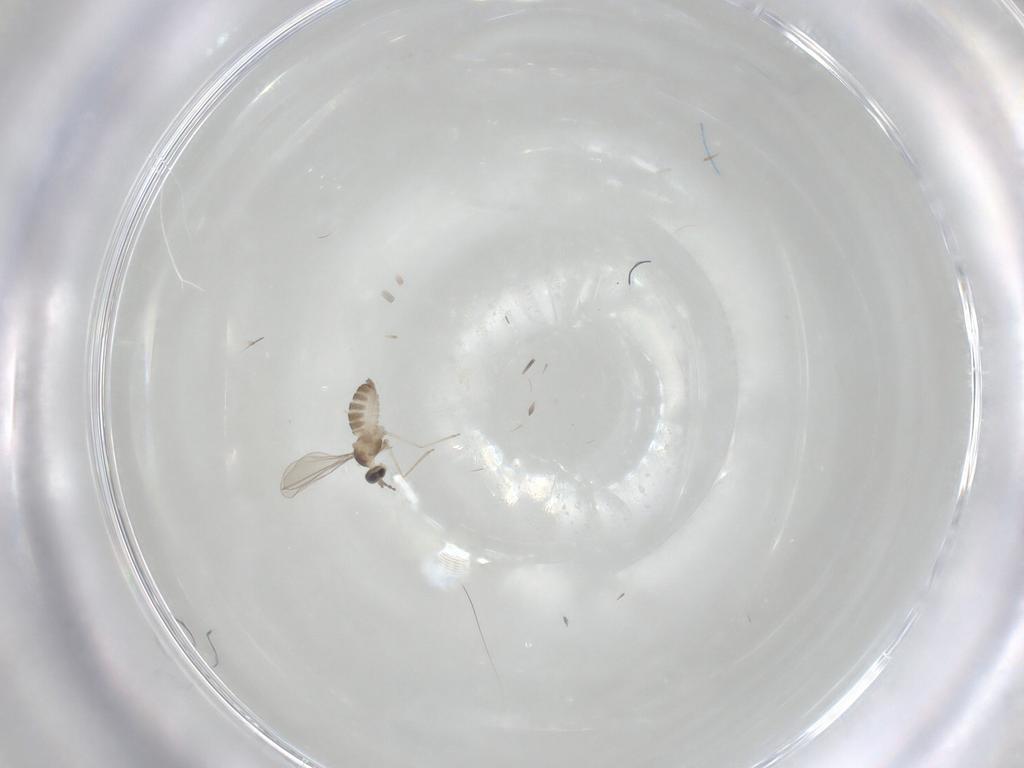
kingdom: Animalia
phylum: Arthropoda
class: Insecta
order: Diptera
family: Cecidomyiidae
